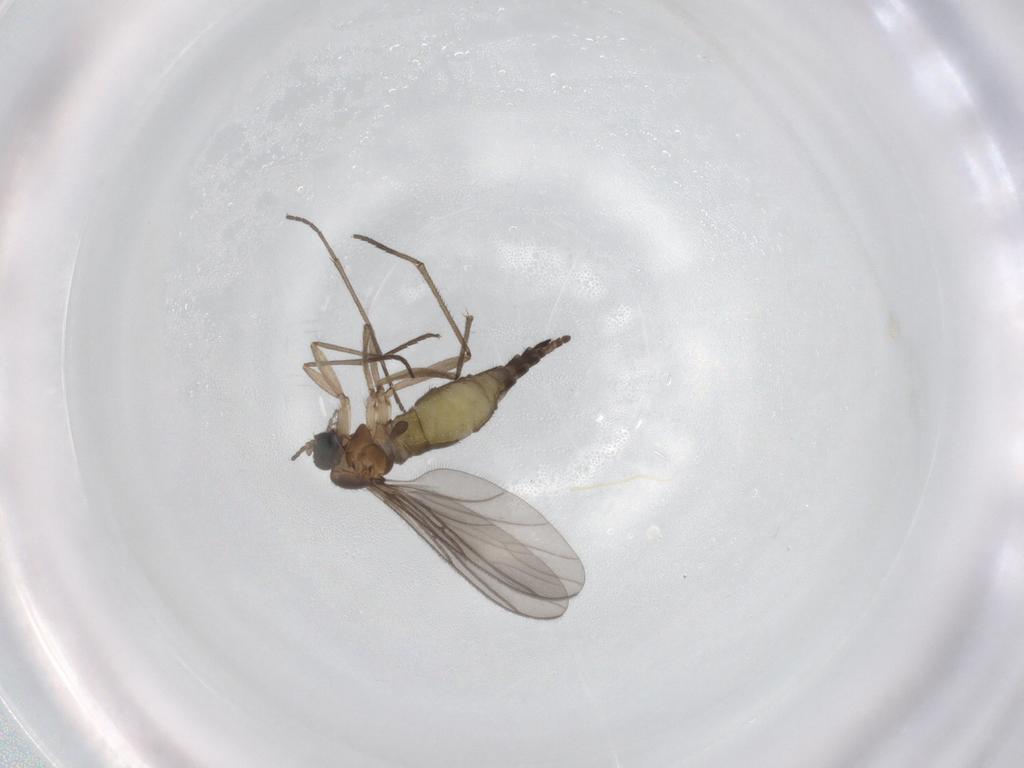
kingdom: Animalia
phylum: Arthropoda
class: Insecta
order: Diptera
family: Sciaridae
